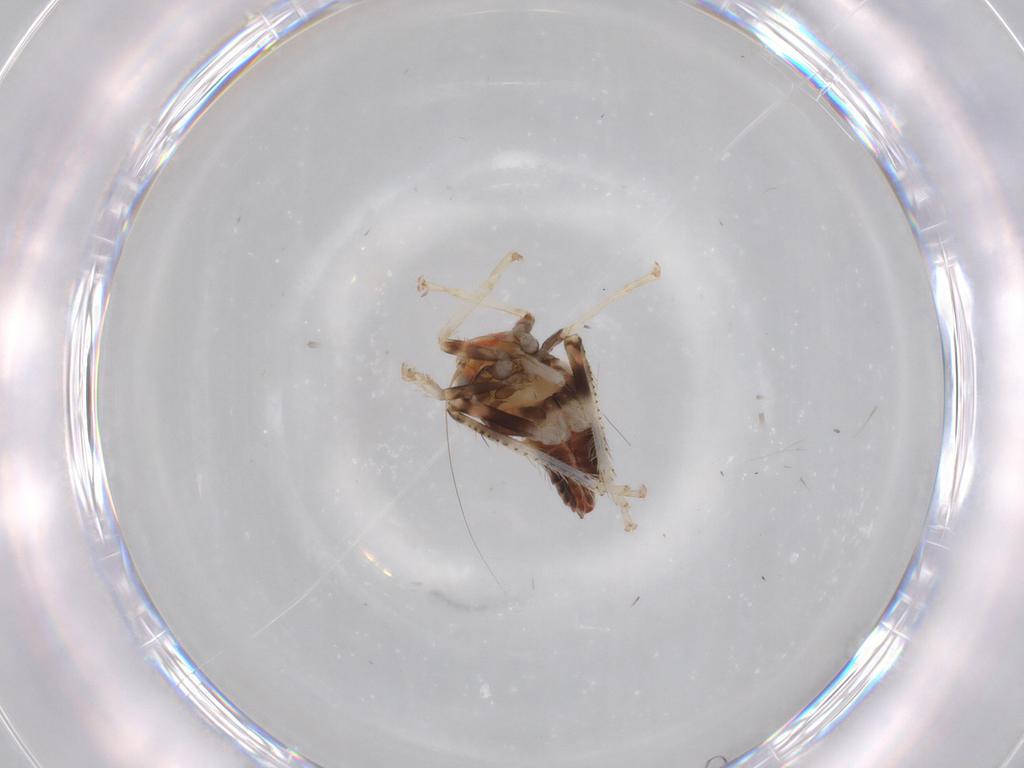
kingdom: Animalia
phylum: Arthropoda
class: Insecta
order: Hemiptera
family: Cicadellidae
